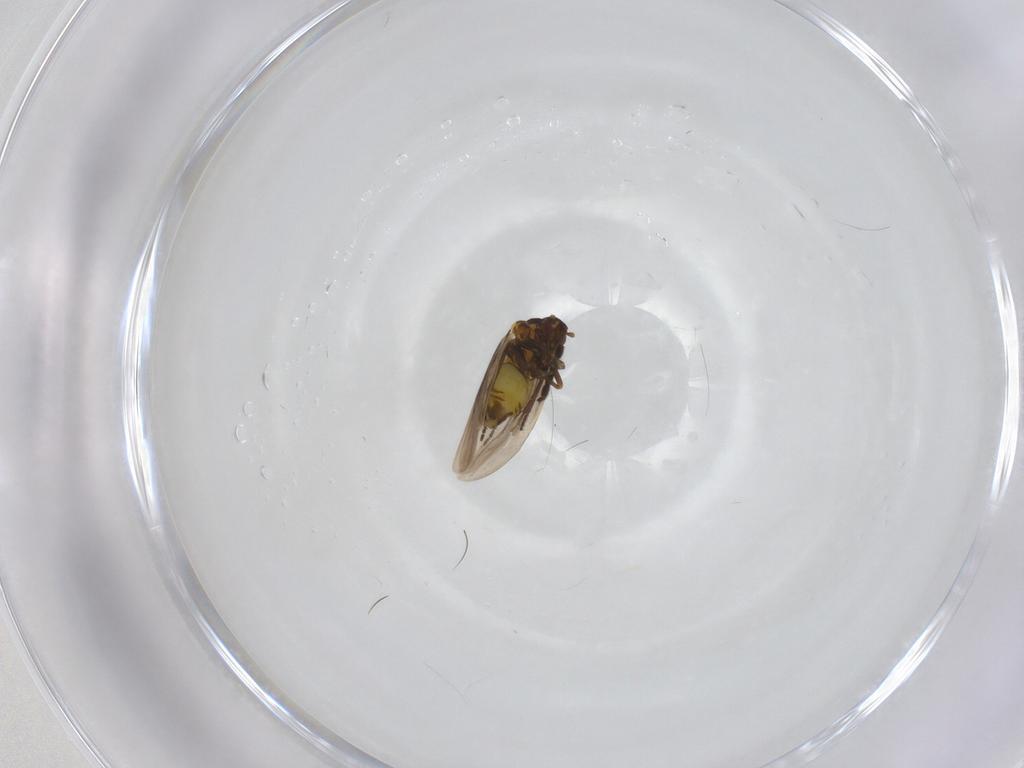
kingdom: Animalia
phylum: Arthropoda
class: Insecta
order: Hemiptera
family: Aleyrodidae
